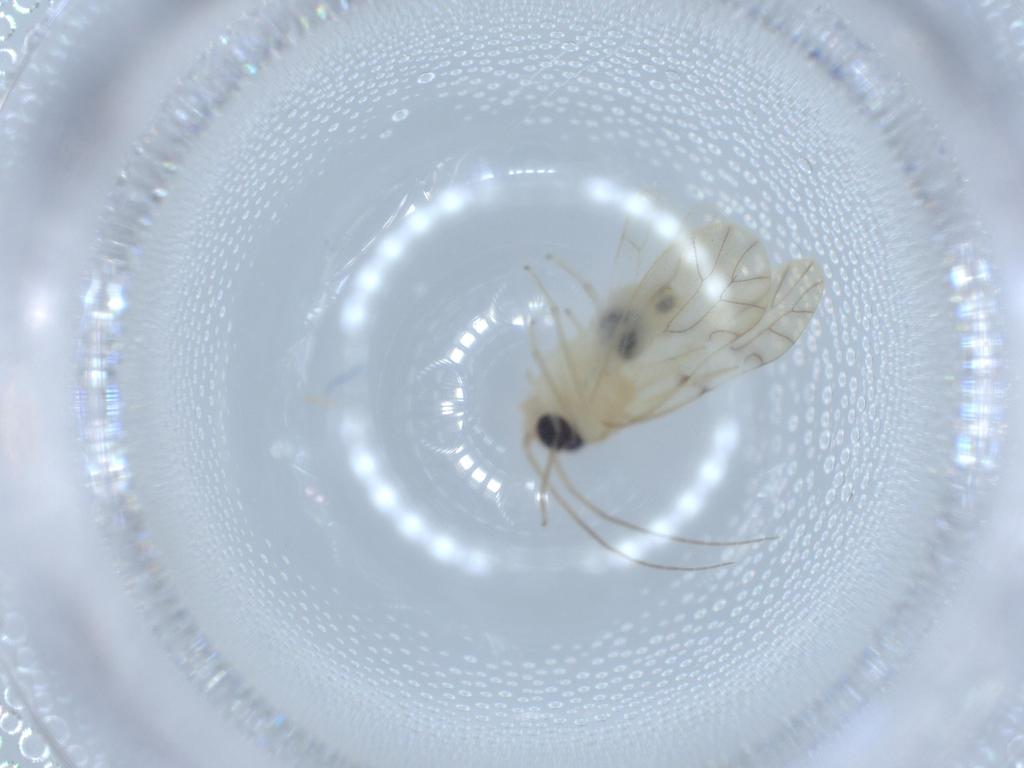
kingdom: Animalia
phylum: Arthropoda
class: Insecta
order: Psocodea
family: Caeciliusidae
